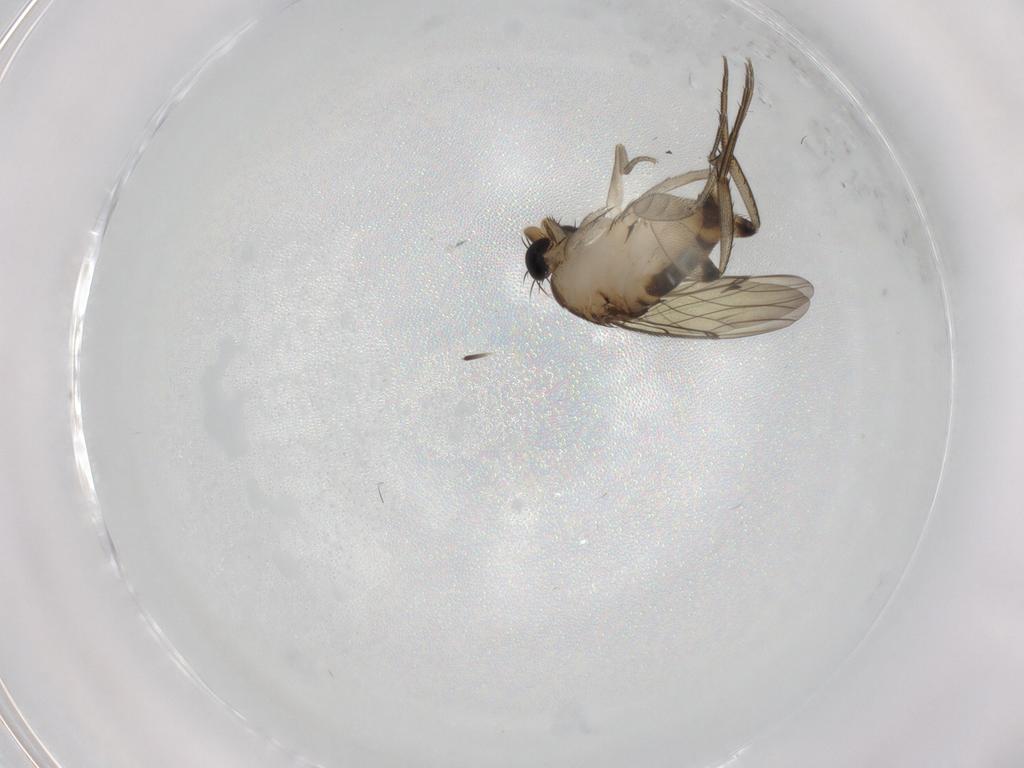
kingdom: Animalia
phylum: Arthropoda
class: Insecta
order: Diptera
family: Phoridae
